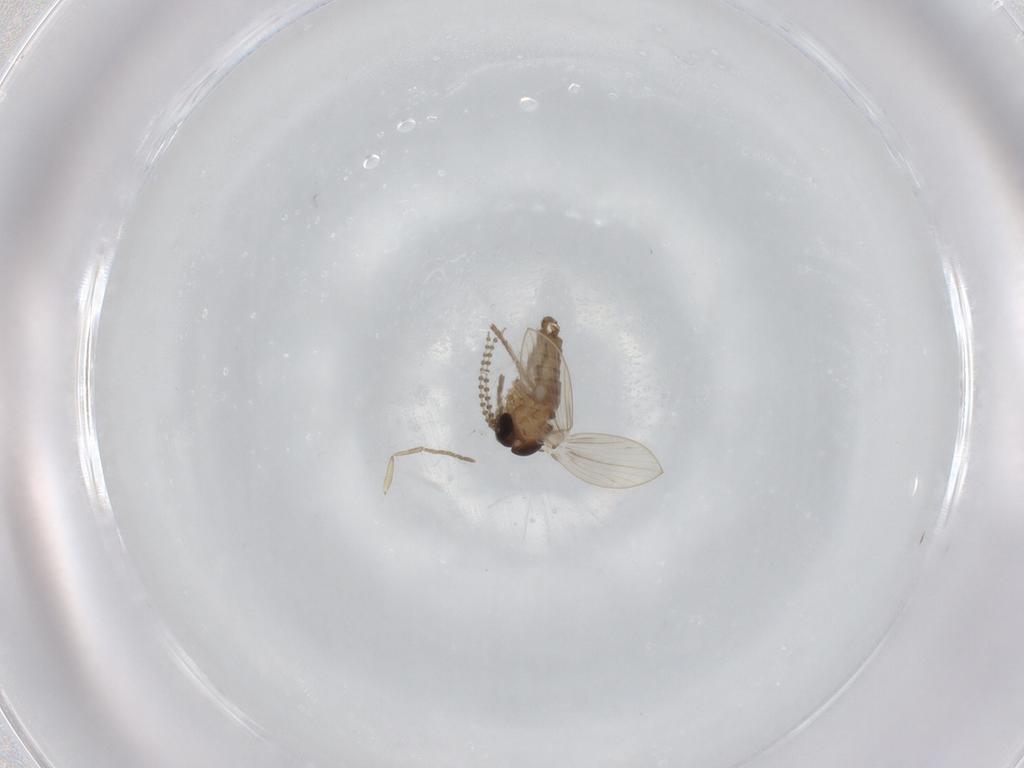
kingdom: Animalia
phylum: Arthropoda
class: Insecta
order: Diptera
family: Psychodidae
